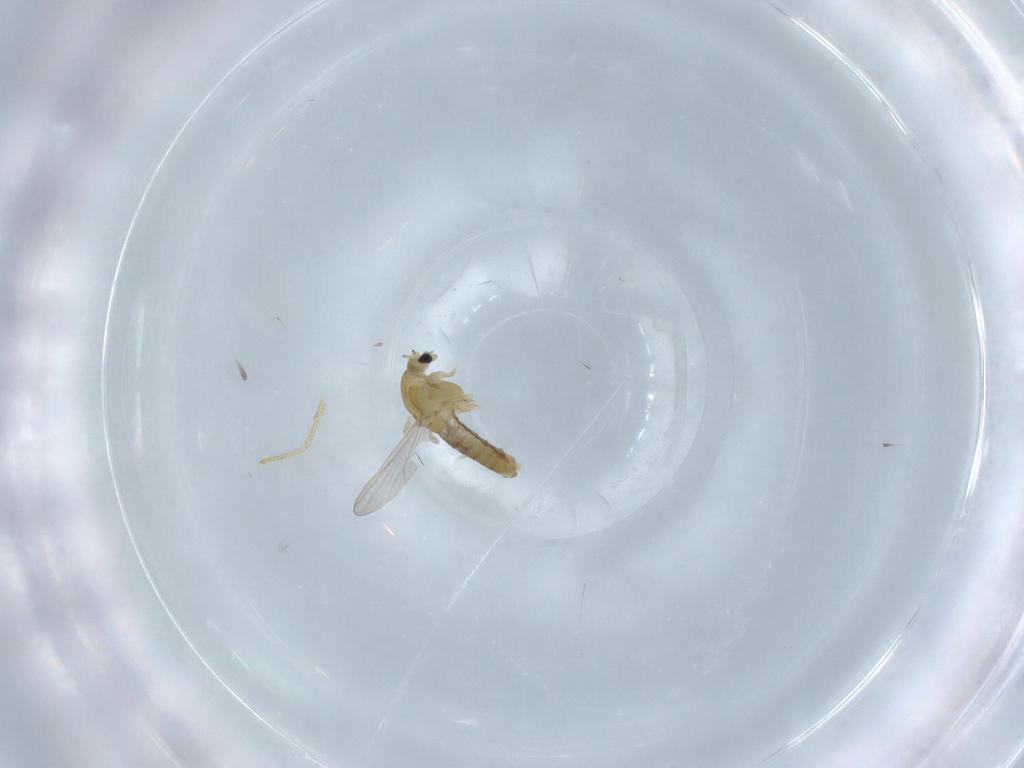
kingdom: Animalia
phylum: Arthropoda
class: Insecta
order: Diptera
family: Chironomidae
